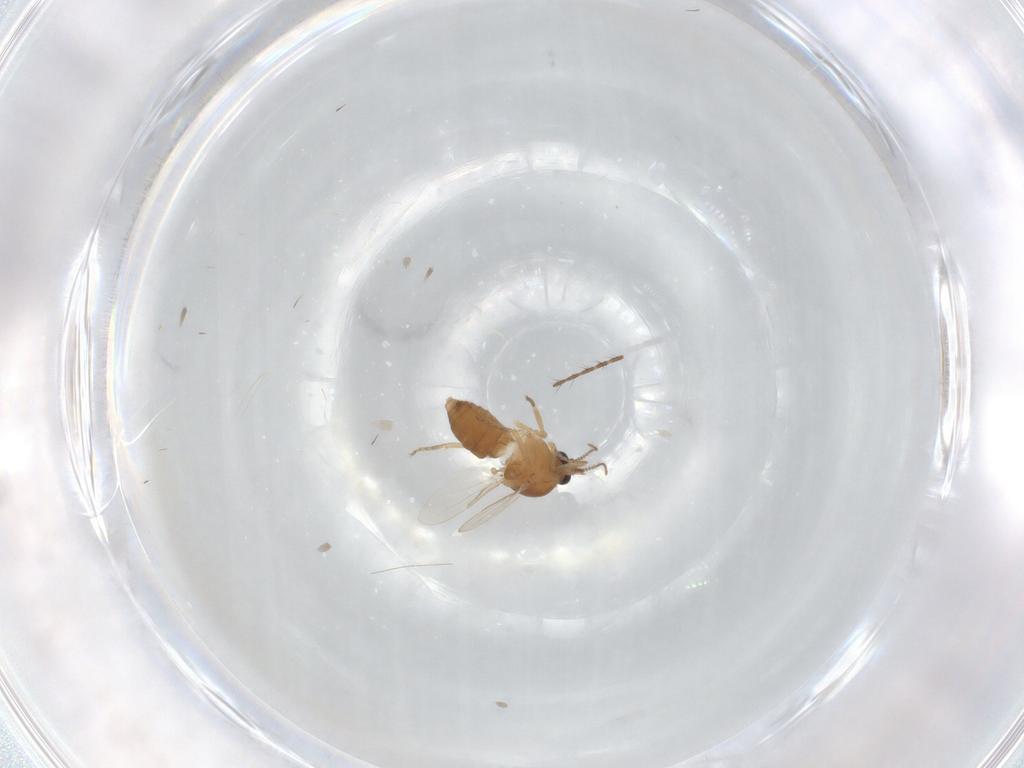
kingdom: Animalia
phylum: Arthropoda
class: Insecta
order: Diptera
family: Ceratopogonidae
